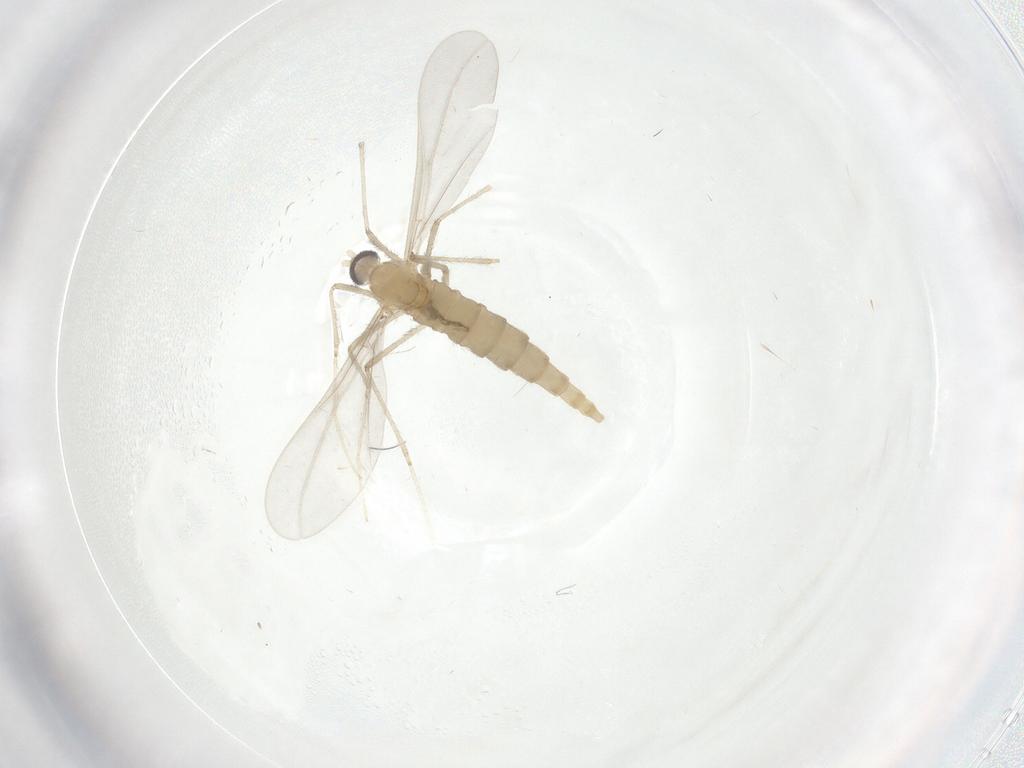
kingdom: Animalia
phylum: Arthropoda
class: Insecta
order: Diptera
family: Cecidomyiidae
